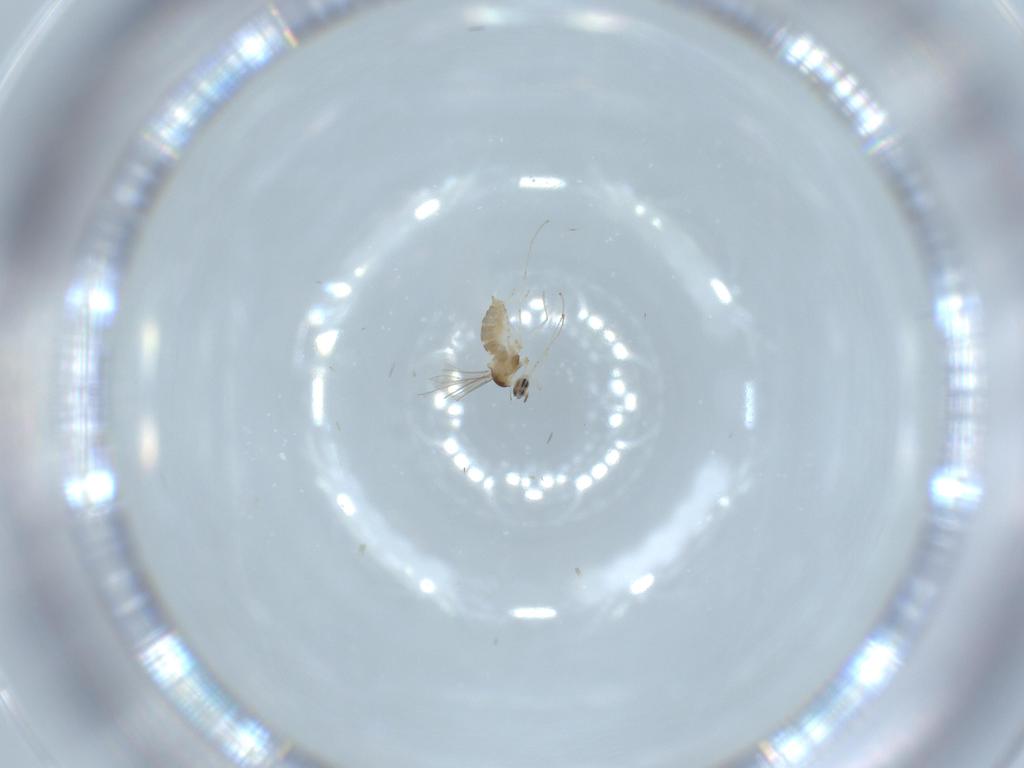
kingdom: Animalia
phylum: Arthropoda
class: Insecta
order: Diptera
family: Cecidomyiidae
